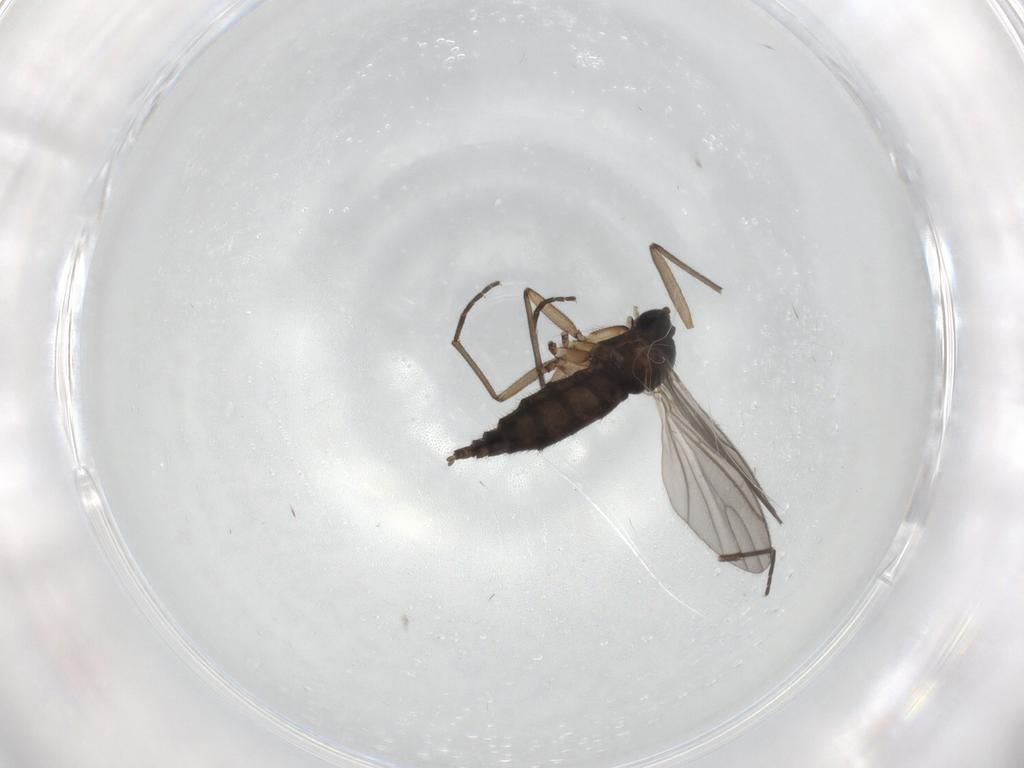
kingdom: Animalia
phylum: Arthropoda
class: Insecta
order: Diptera
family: Sciaridae
